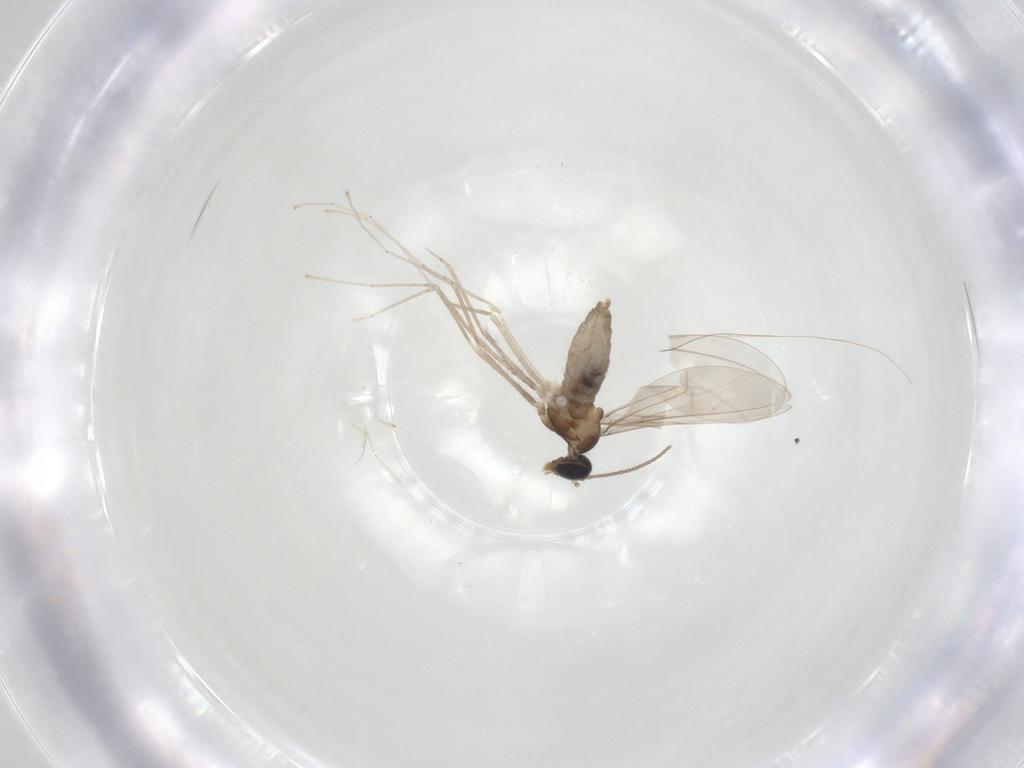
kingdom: Animalia
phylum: Arthropoda
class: Insecta
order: Diptera
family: Cecidomyiidae
